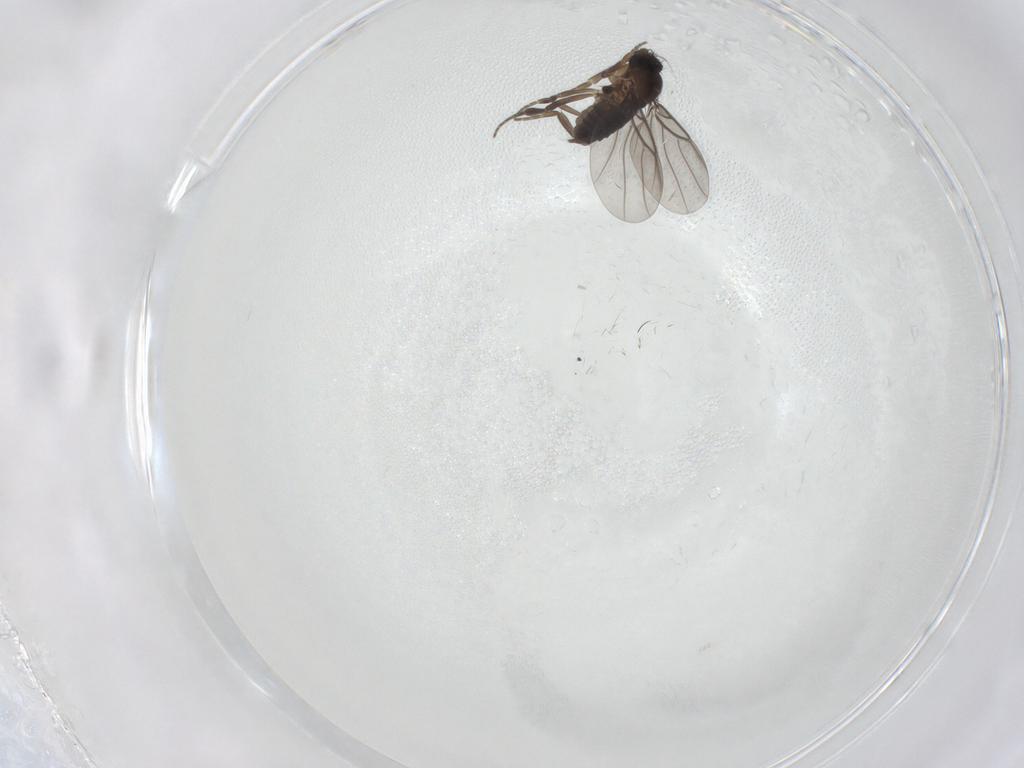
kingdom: Animalia
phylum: Arthropoda
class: Insecta
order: Diptera
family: Phoridae
